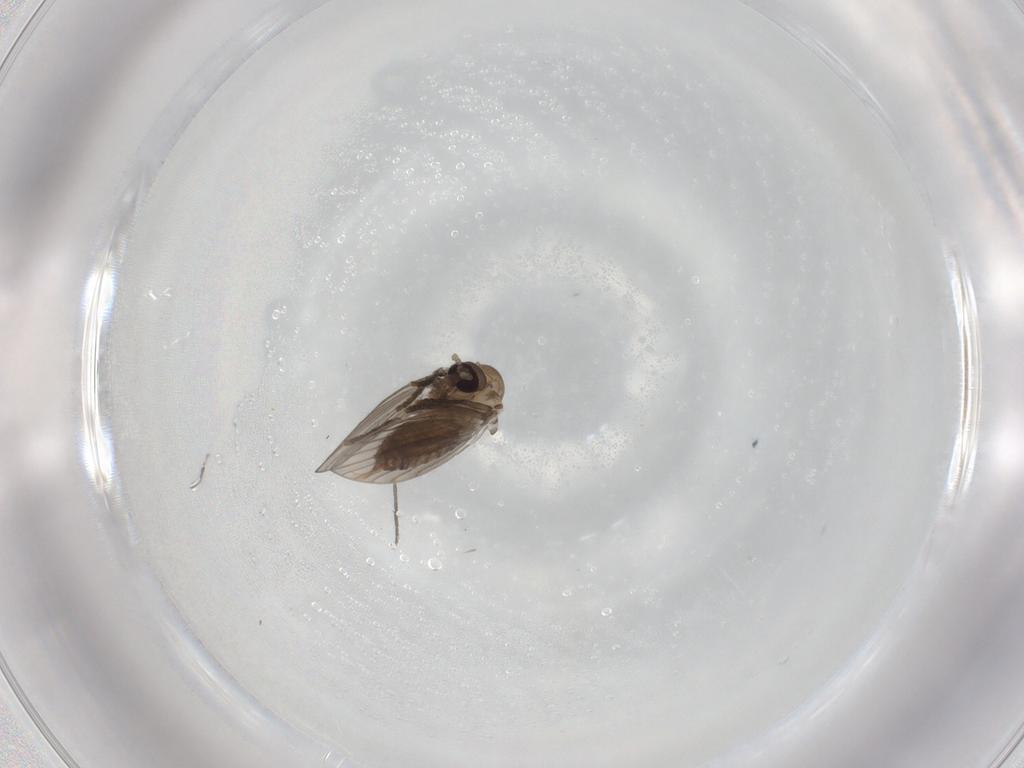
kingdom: Animalia
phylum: Arthropoda
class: Insecta
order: Diptera
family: Psychodidae
